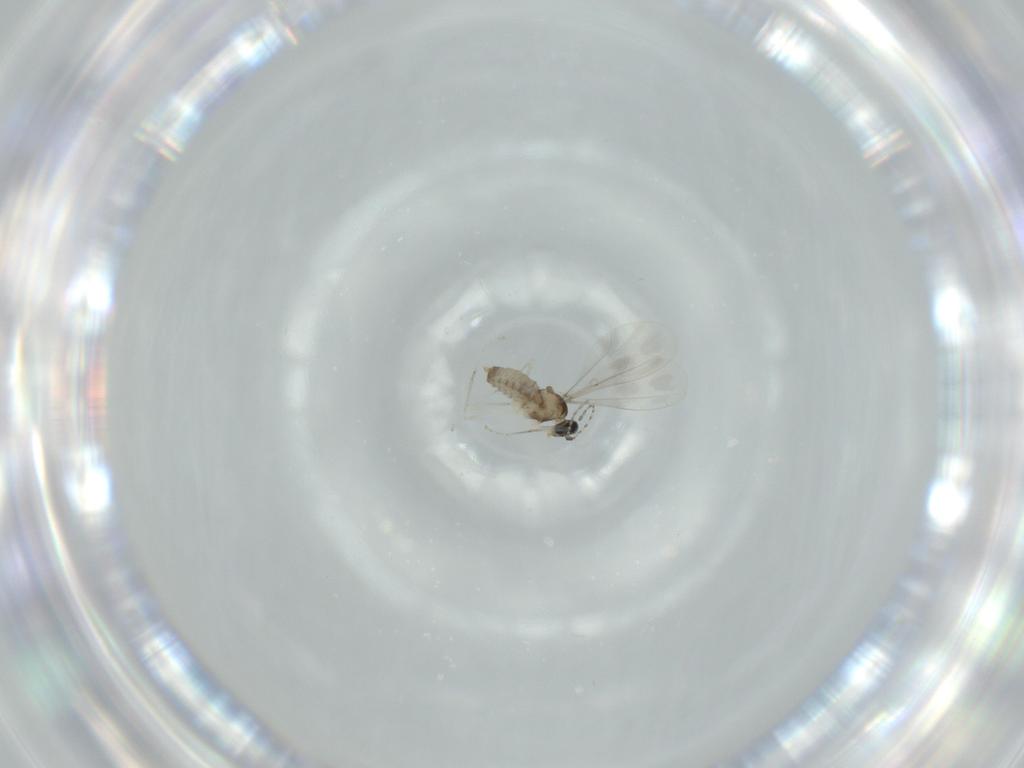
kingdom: Animalia
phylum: Arthropoda
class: Insecta
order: Diptera
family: Cecidomyiidae
